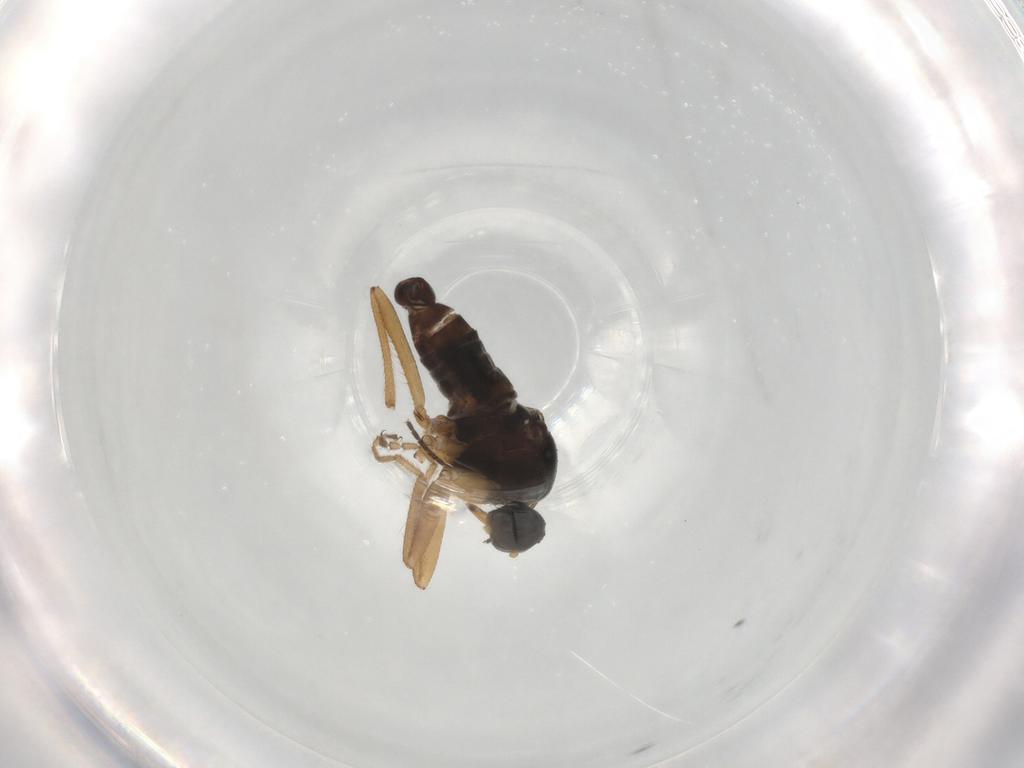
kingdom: Animalia
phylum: Arthropoda
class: Insecta
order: Diptera
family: Hybotidae
